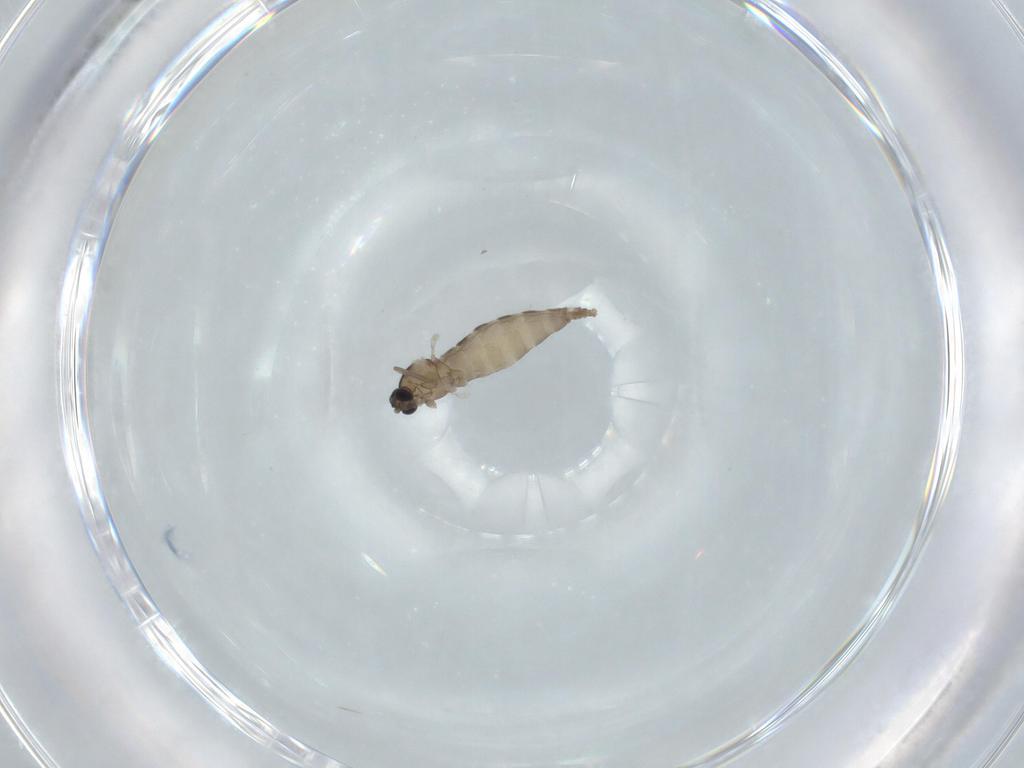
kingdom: Animalia
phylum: Arthropoda
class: Insecta
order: Diptera
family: Cecidomyiidae
